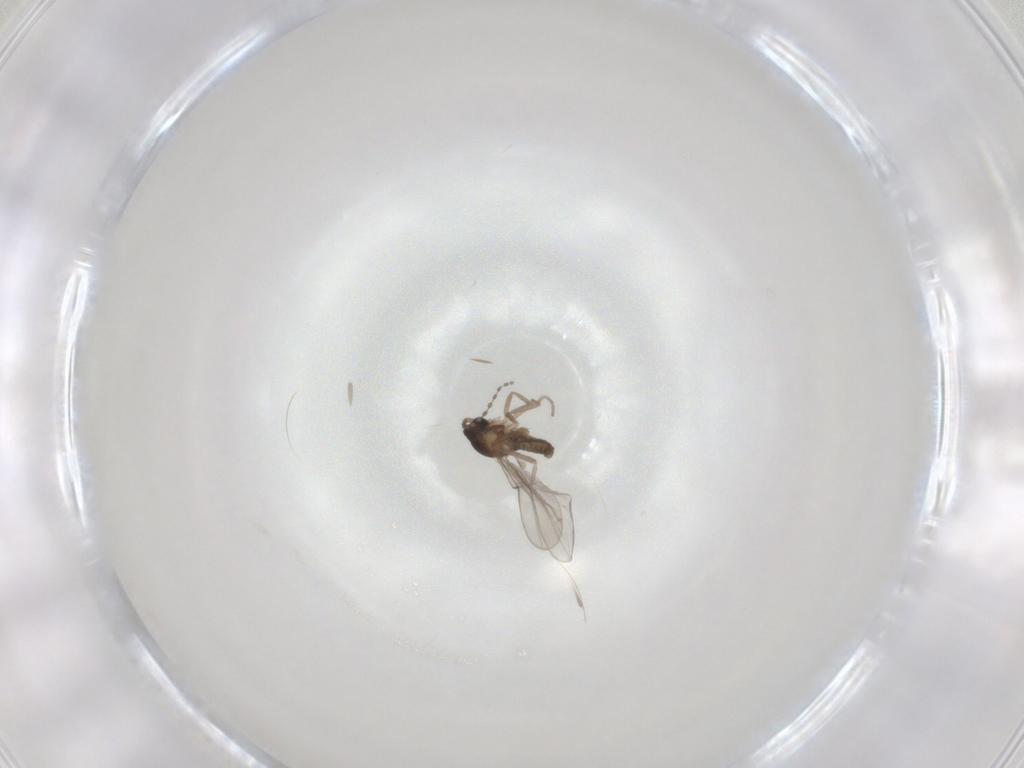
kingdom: Animalia
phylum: Arthropoda
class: Insecta
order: Diptera
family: Cecidomyiidae
